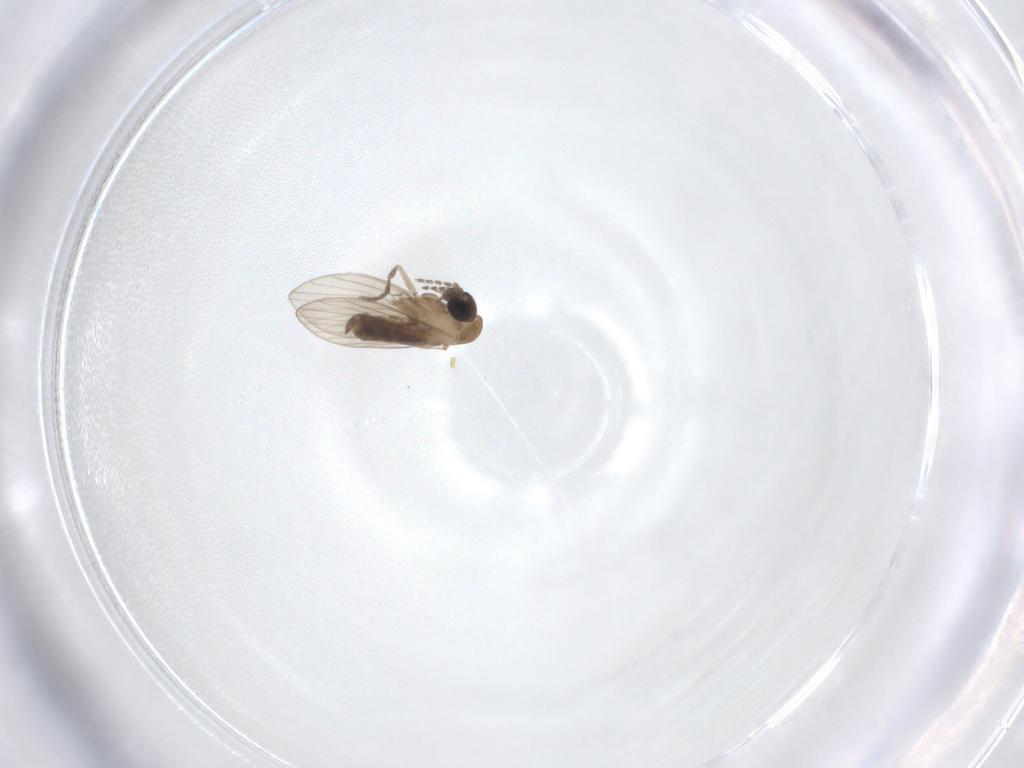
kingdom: Animalia
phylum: Arthropoda
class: Insecta
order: Diptera
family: Psychodidae
